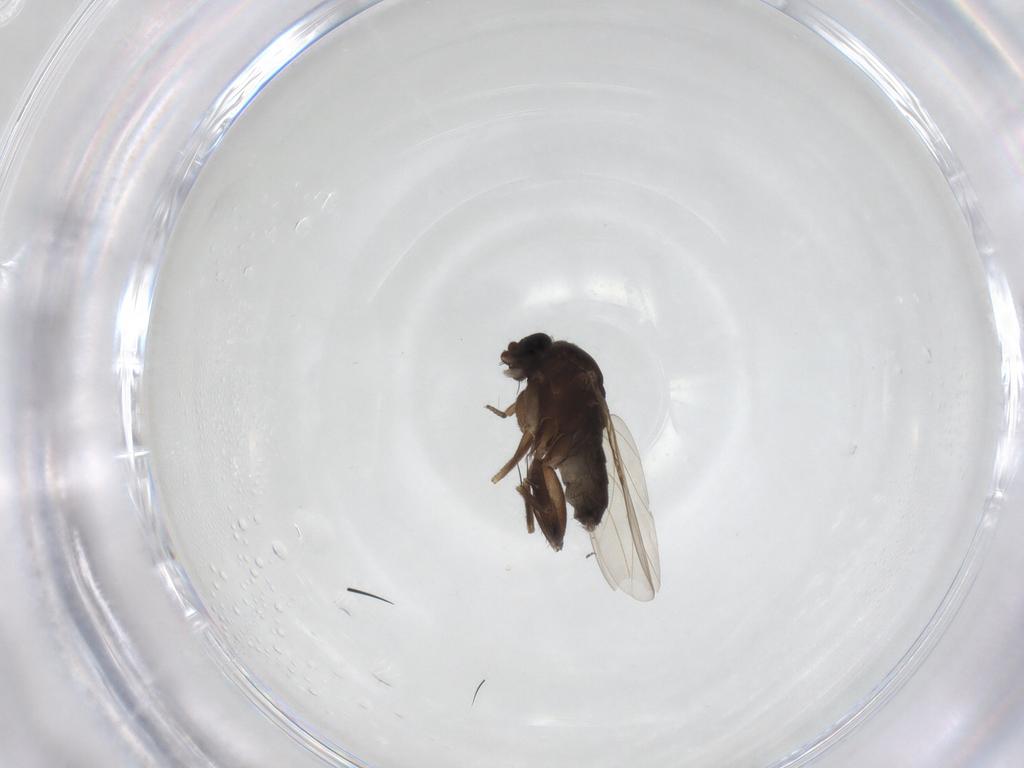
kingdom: Animalia
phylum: Arthropoda
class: Insecta
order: Diptera
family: Phoridae
